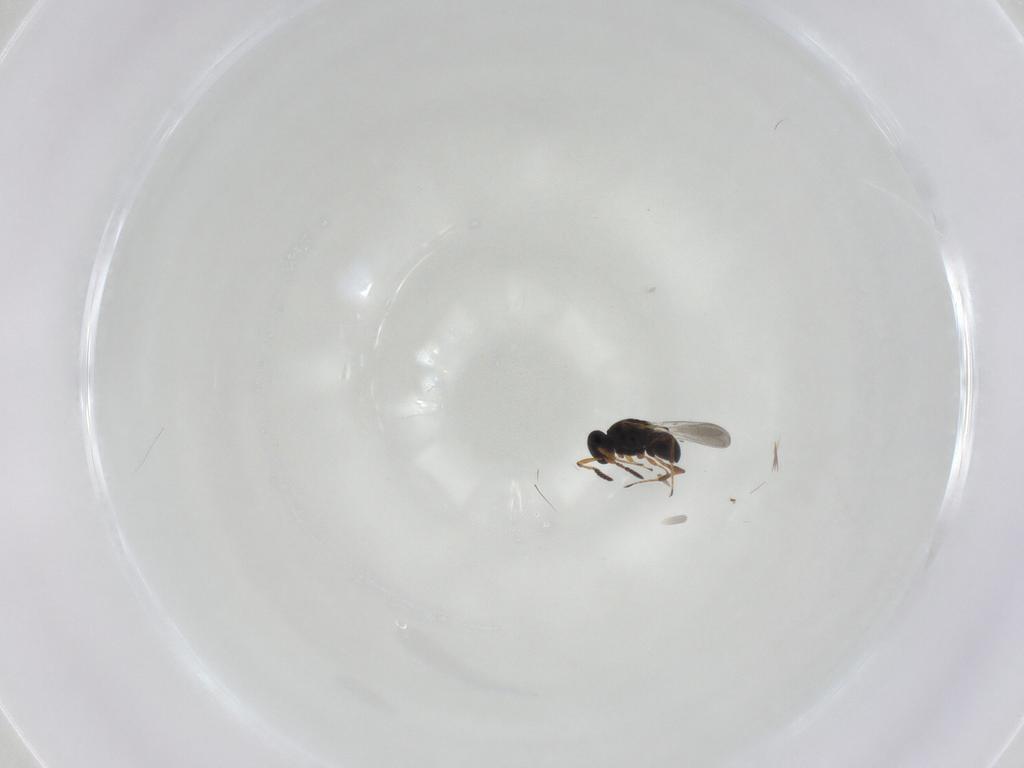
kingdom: Animalia
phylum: Arthropoda
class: Insecta
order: Hymenoptera
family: Platygastridae
